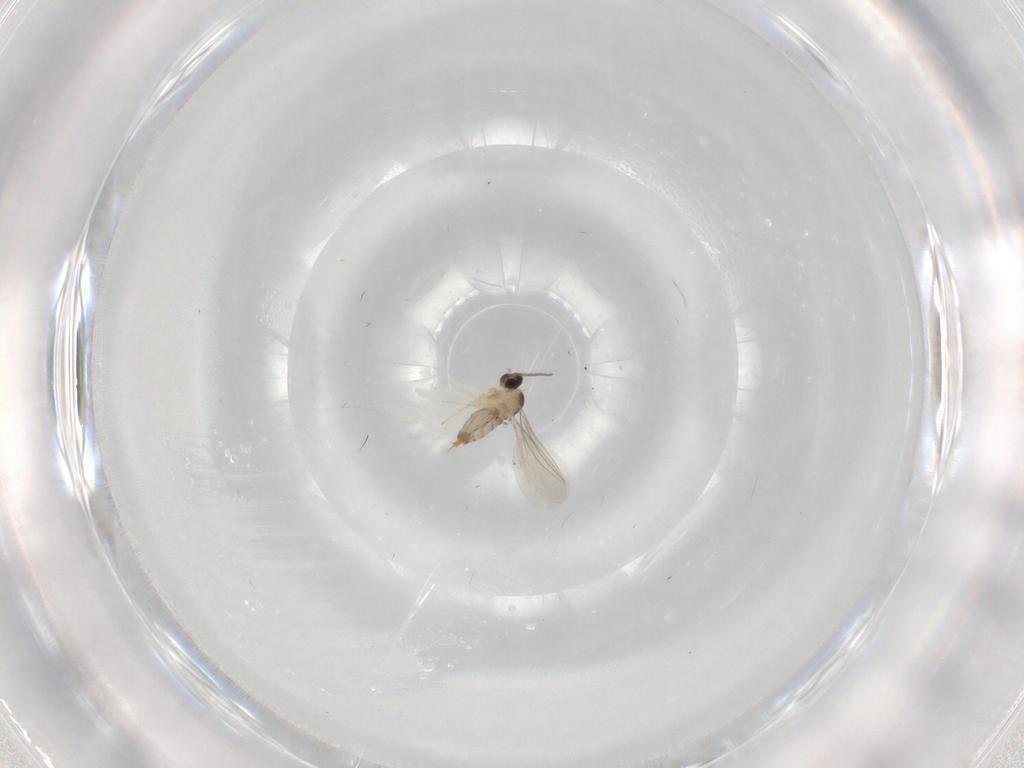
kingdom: Animalia
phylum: Arthropoda
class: Insecta
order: Diptera
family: Cecidomyiidae
